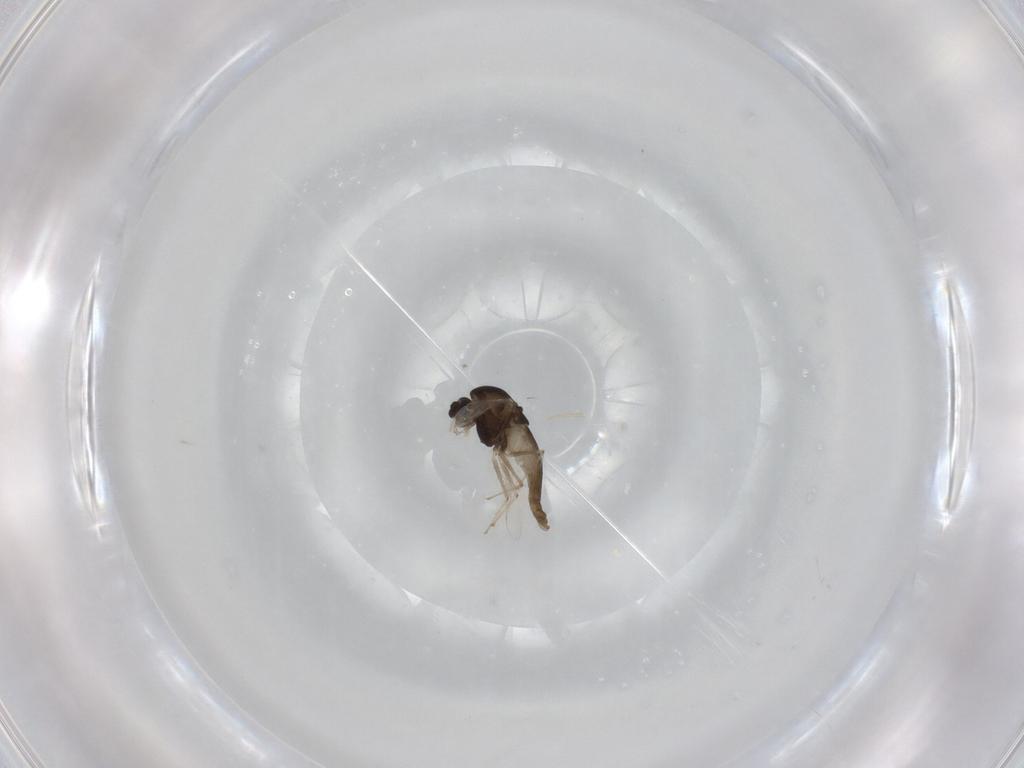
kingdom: Animalia
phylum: Arthropoda
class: Insecta
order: Diptera
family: Chironomidae
